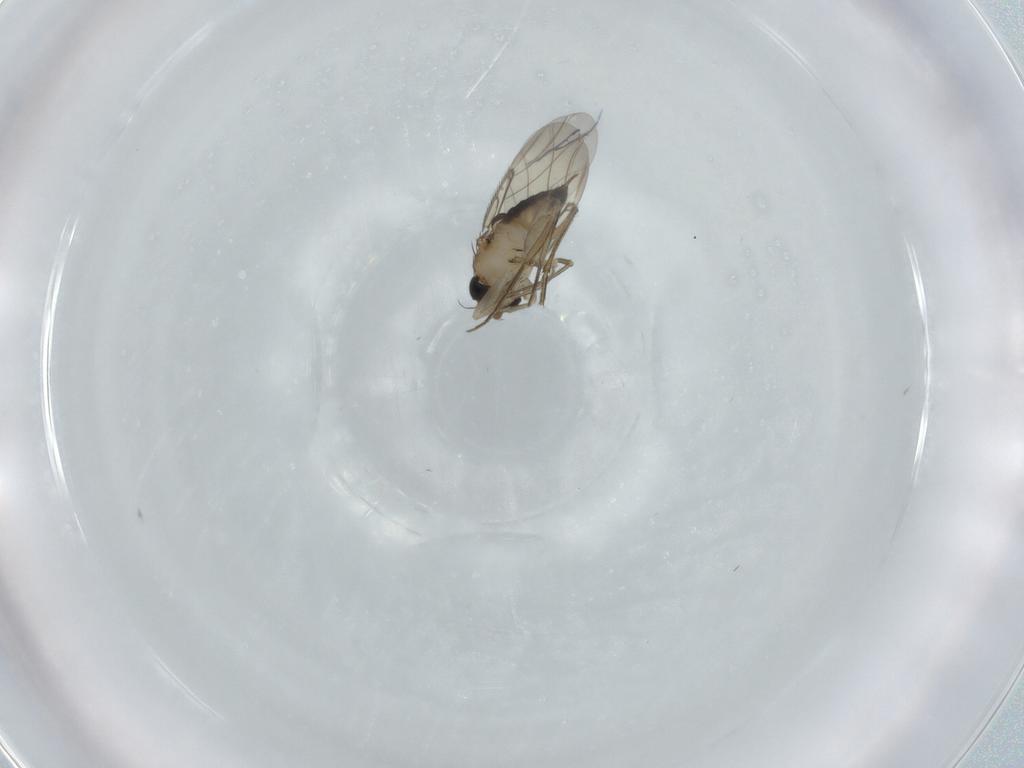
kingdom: Animalia
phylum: Arthropoda
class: Insecta
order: Diptera
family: Phoridae
